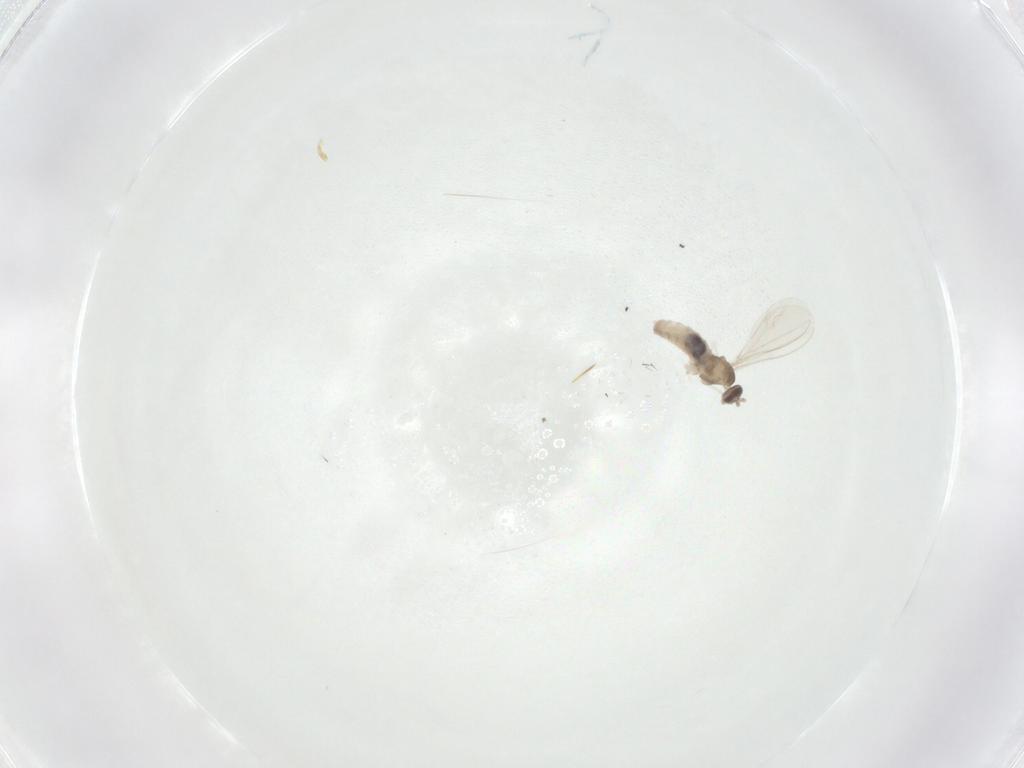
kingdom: Animalia
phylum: Arthropoda
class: Insecta
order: Diptera
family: Cecidomyiidae
